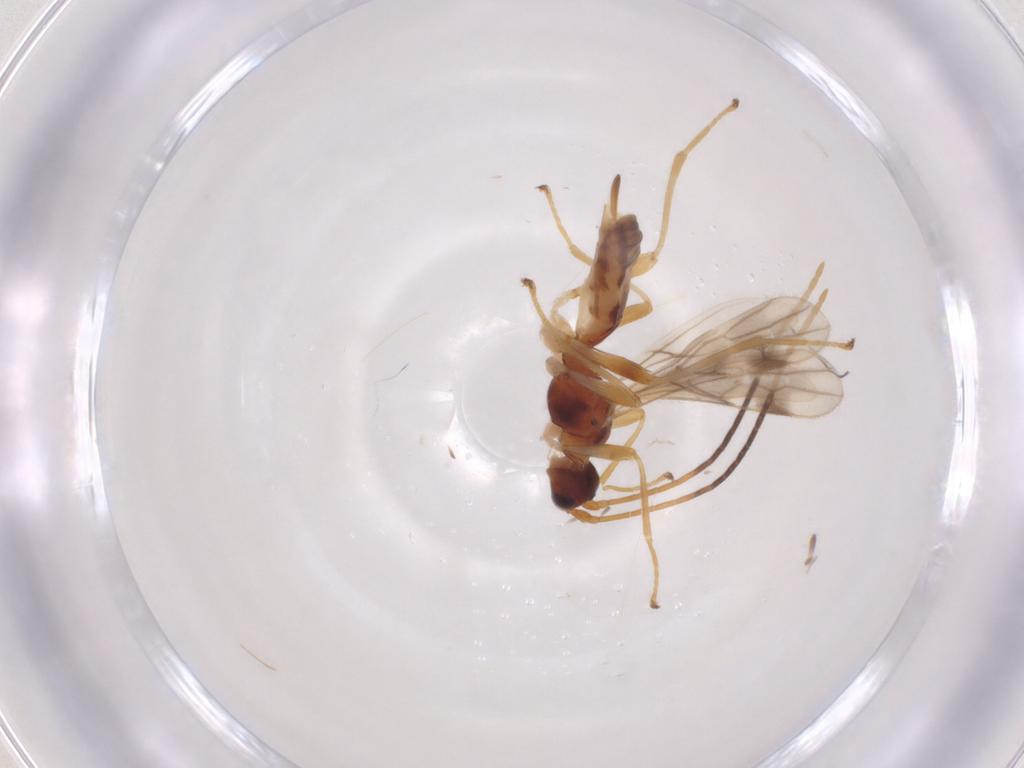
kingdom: Animalia
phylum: Arthropoda
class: Insecta
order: Hymenoptera
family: Braconidae
